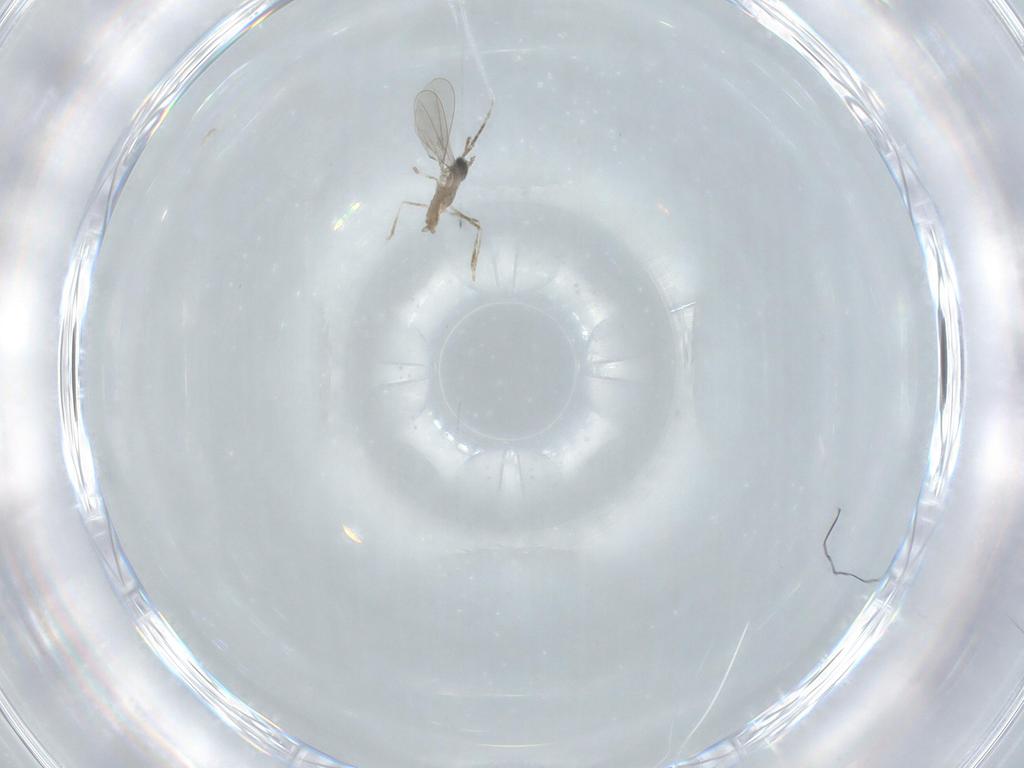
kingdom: Animalia
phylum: Arthropoda
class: Insecta
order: Diptera
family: Cecidomyiidae
